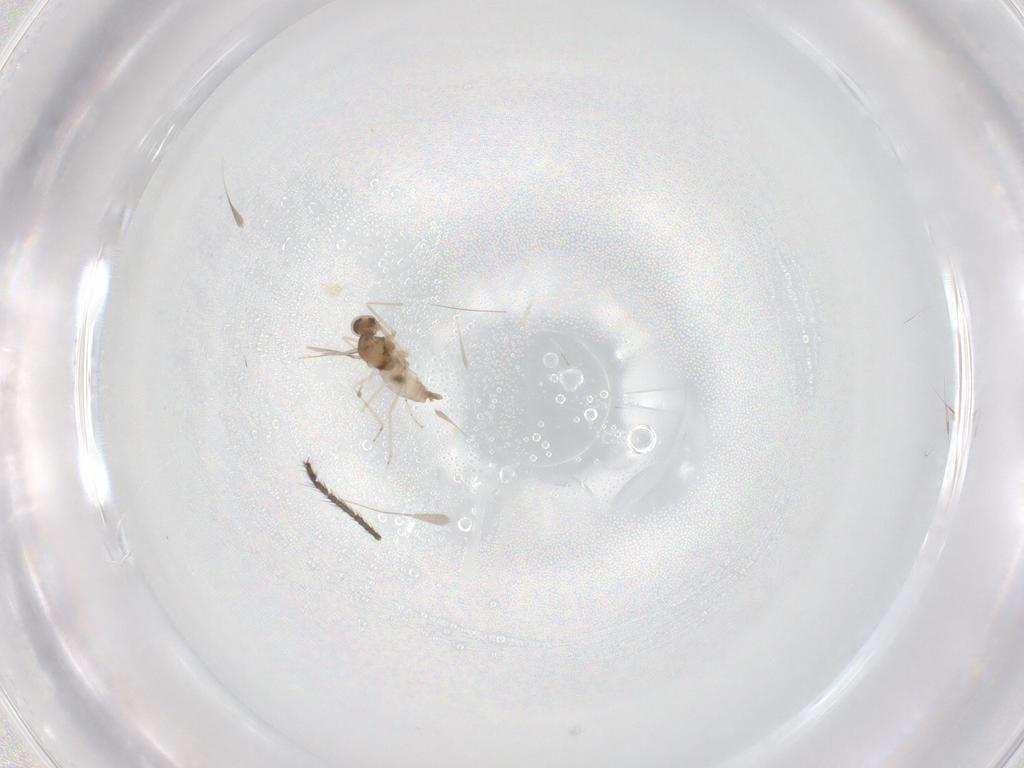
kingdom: Animalia
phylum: Arthropoda
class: Insecta
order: Diptera
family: Cecidomyiidae
